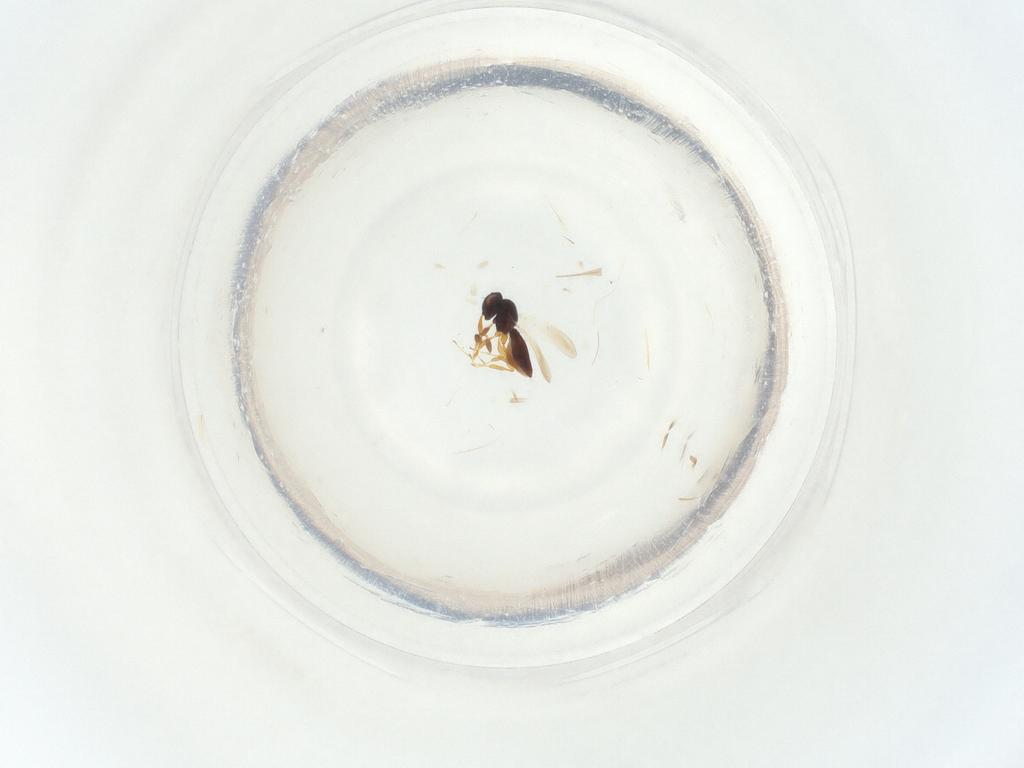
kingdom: Animalia
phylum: Arthropoda
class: Insecta
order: Hymenoptera
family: Platygastridae
